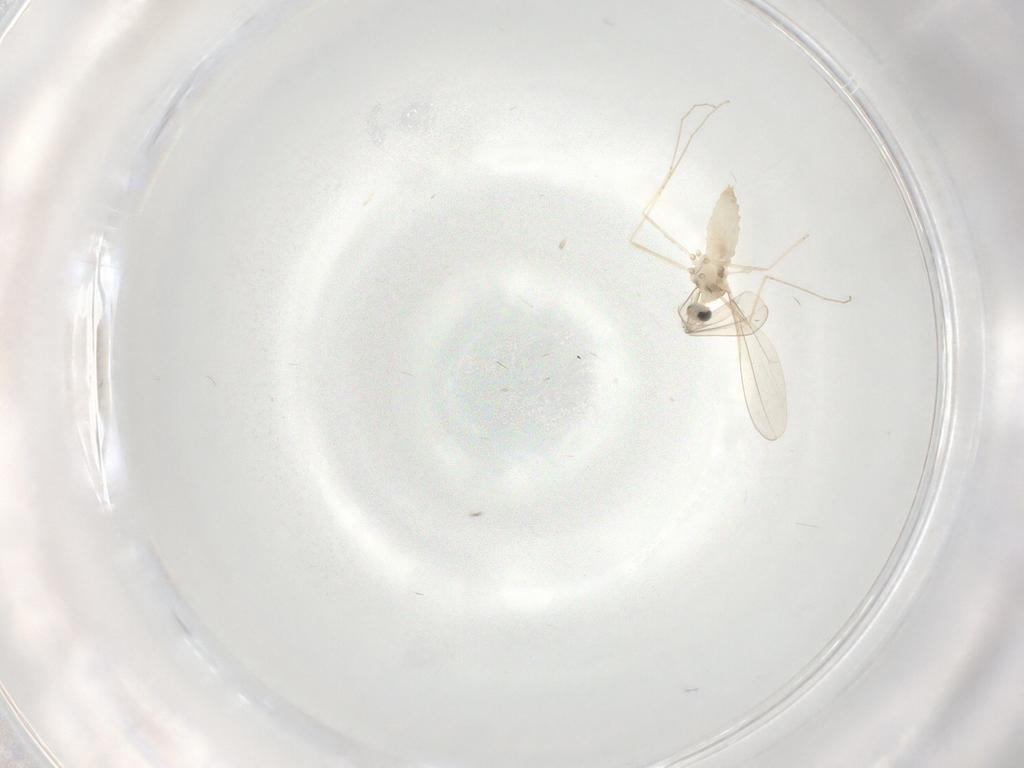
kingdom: Animalia
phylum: Arthropoda
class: Insecta
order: Diptera
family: Cecidomyiidae
